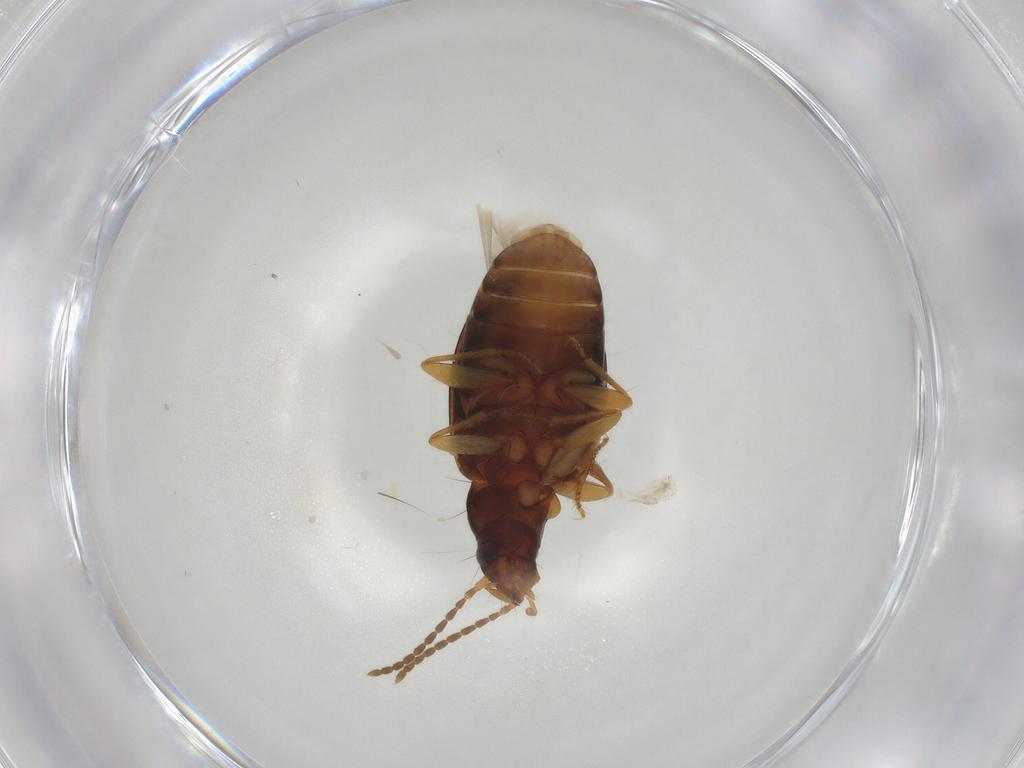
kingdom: Animalia
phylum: Arthropoda
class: Insecta
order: Coleoptera
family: Carabidae
